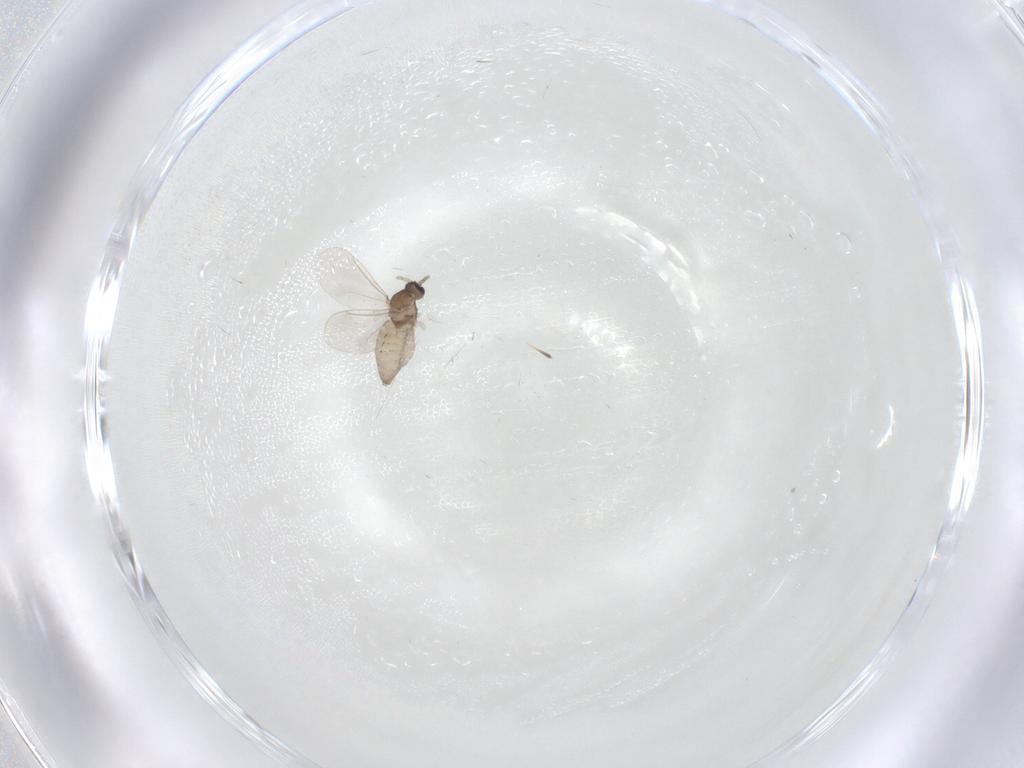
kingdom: Animalia
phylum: Arthropoda
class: Insecta
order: Diptera
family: Cecidomyiidae
